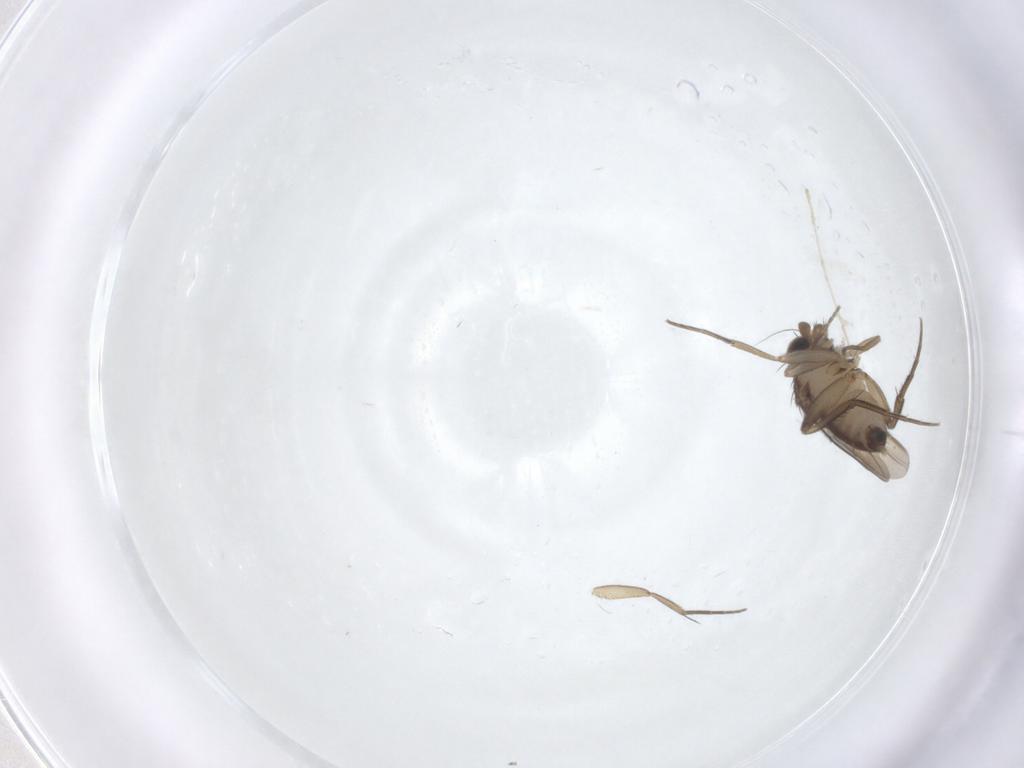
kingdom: Animalia
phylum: Arthropoda
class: Insecta
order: Diptera
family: Phoridae
